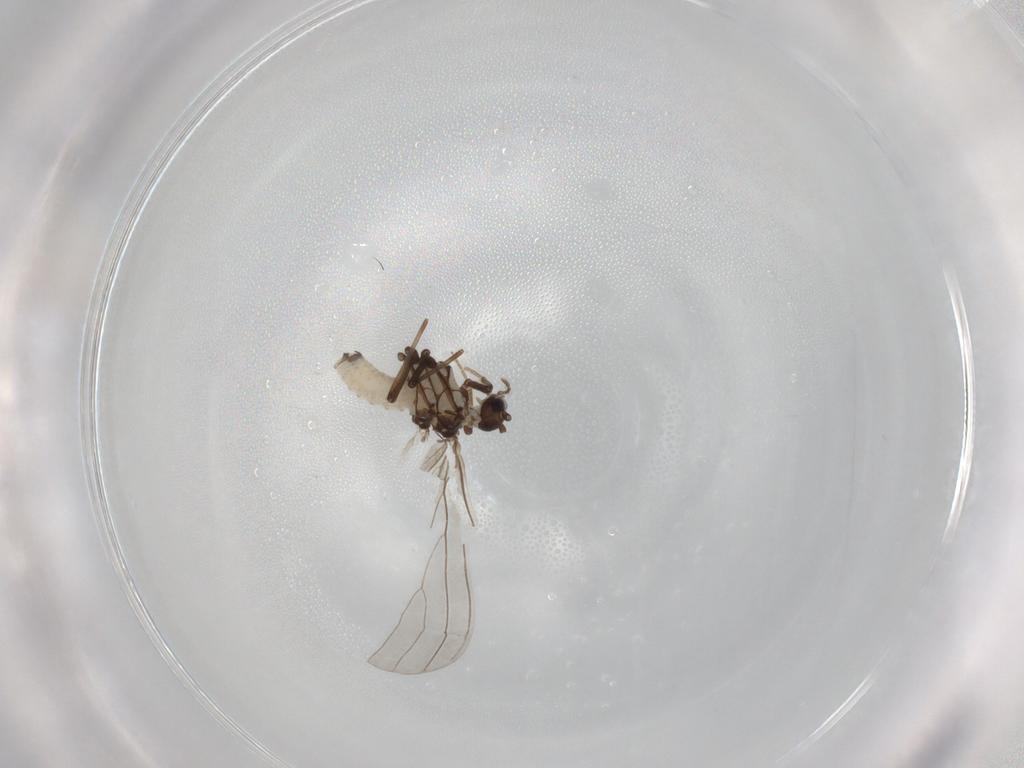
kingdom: Animalia
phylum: Arthropoda
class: Insecta
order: Neuroptera
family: Coniopterygidae
